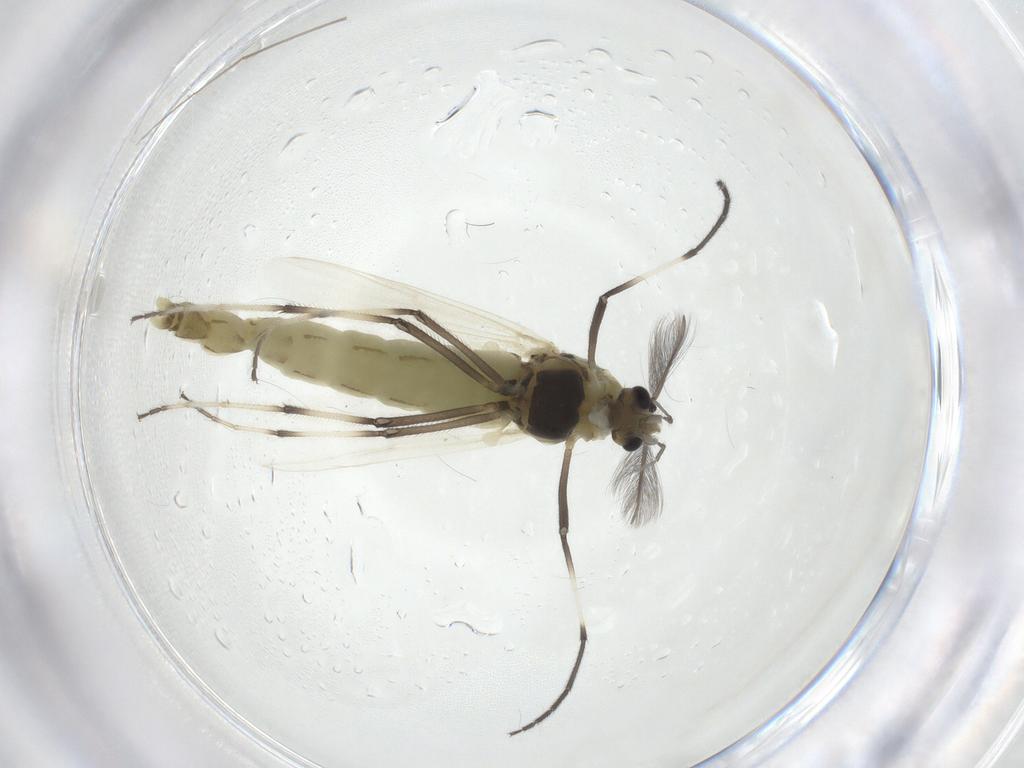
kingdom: Animalia
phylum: Arthropoda
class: Insecta
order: Diptera
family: Chironomidae
